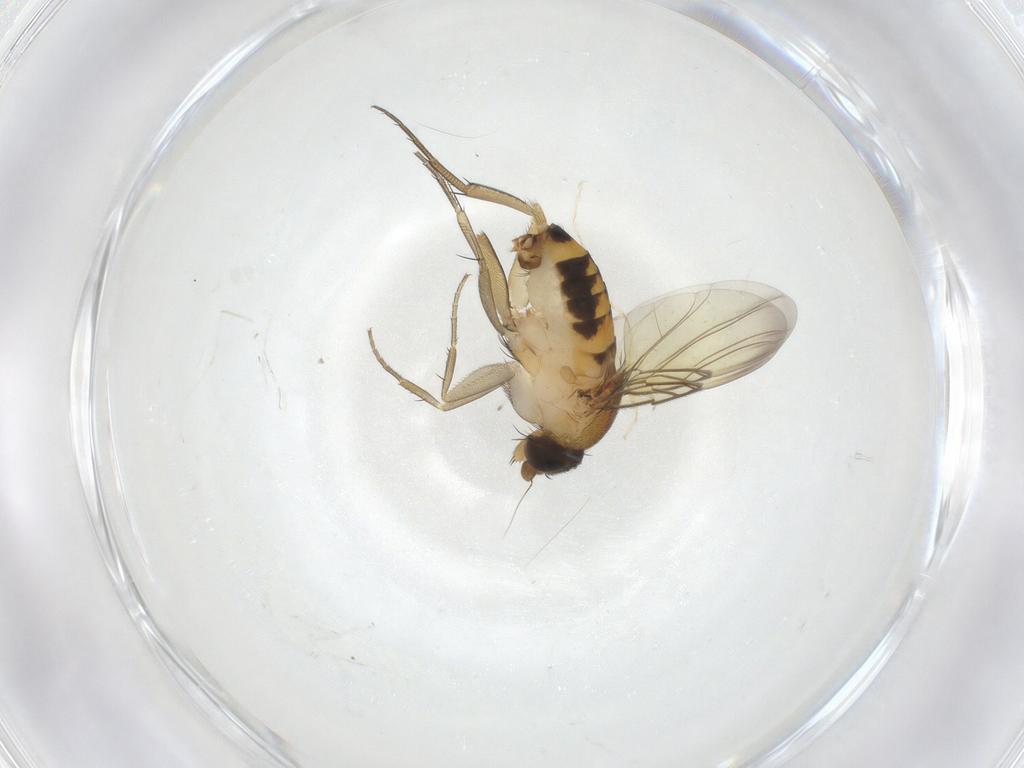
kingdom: Animalia
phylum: Arthropoda
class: Insecta
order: Diptera
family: Phoridae
